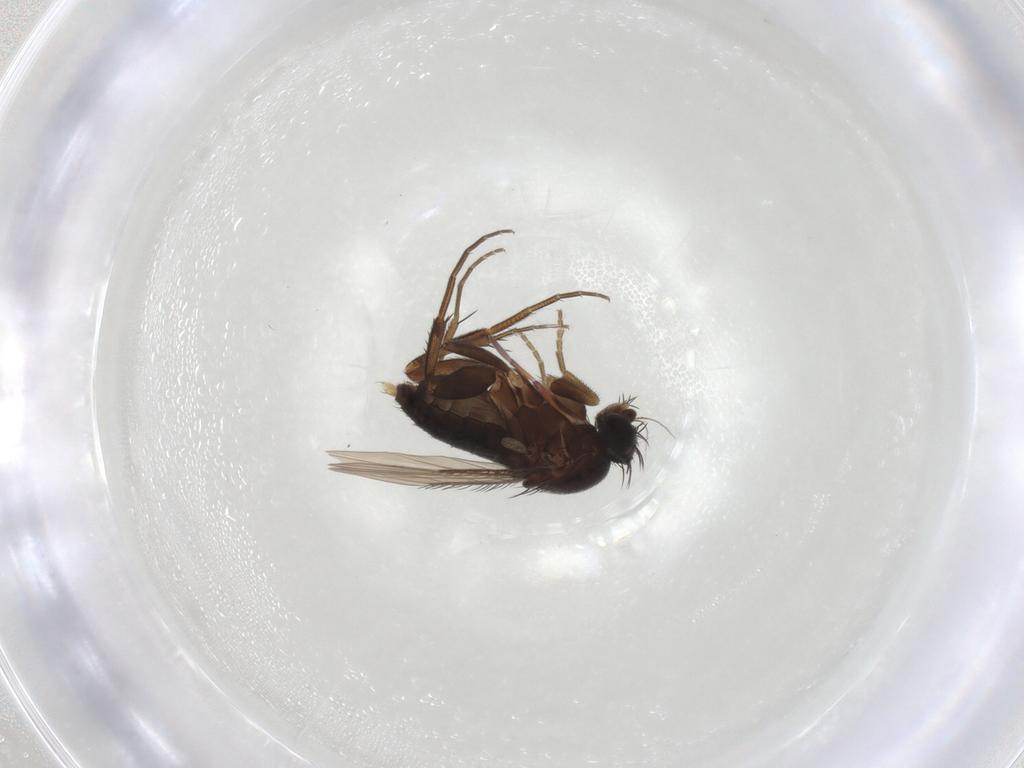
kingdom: Animalia
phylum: Arthropoda
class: Insecta
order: Diptera
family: Phoridae
